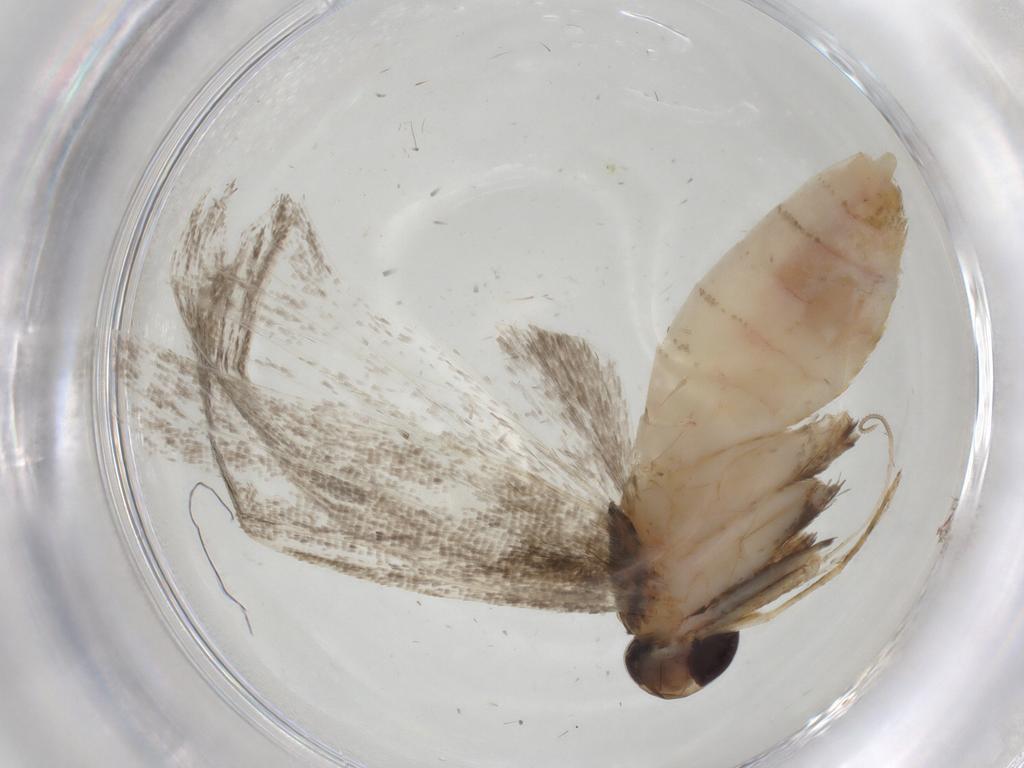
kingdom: Animalia
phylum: Arthropoda
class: Insecta
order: Lepidoptera
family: Cosmopterigidae
